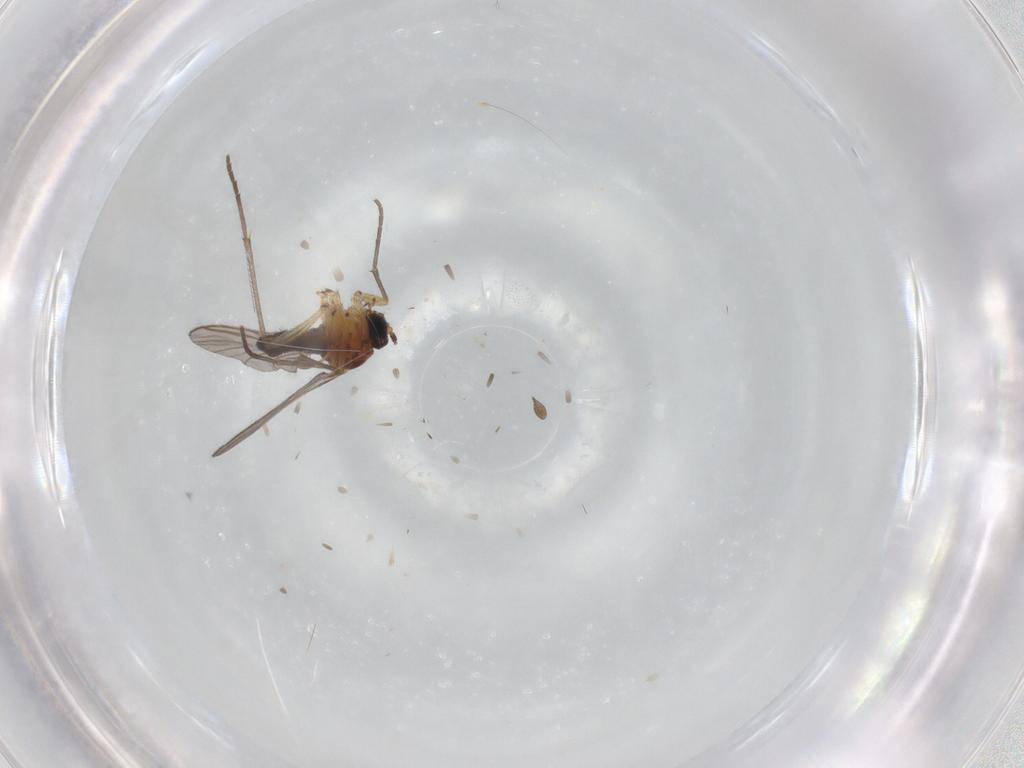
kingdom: Animalia
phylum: Arthropoda
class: Insecta
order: Diptera
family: Sciaridae
